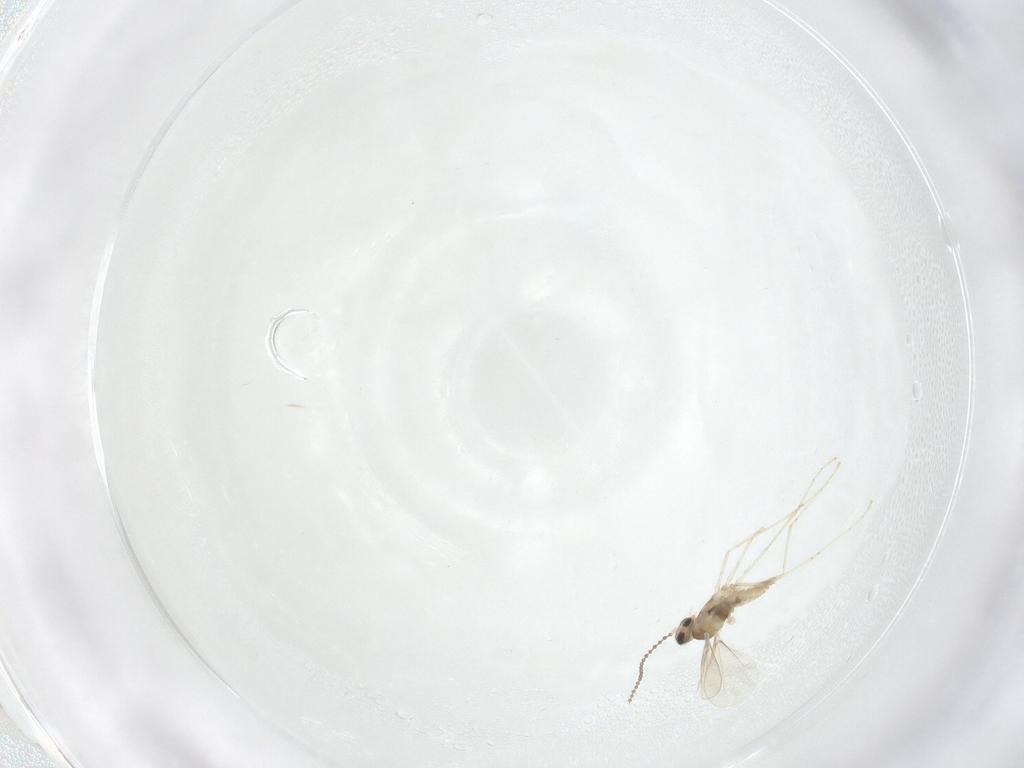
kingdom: Animalia
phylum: Arthropoda
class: Insecta
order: Diptera
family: Cecidomyiidae
